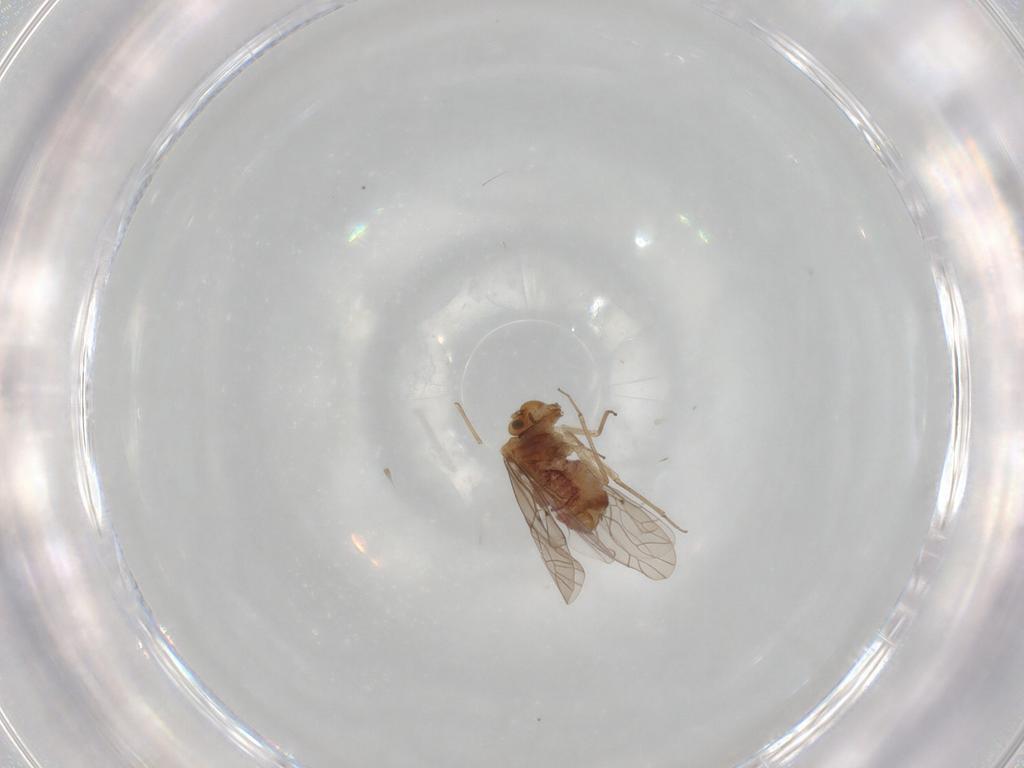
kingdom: Animalia
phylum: Arthropoda
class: Insecta
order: Psocodea
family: Lachesillidae
